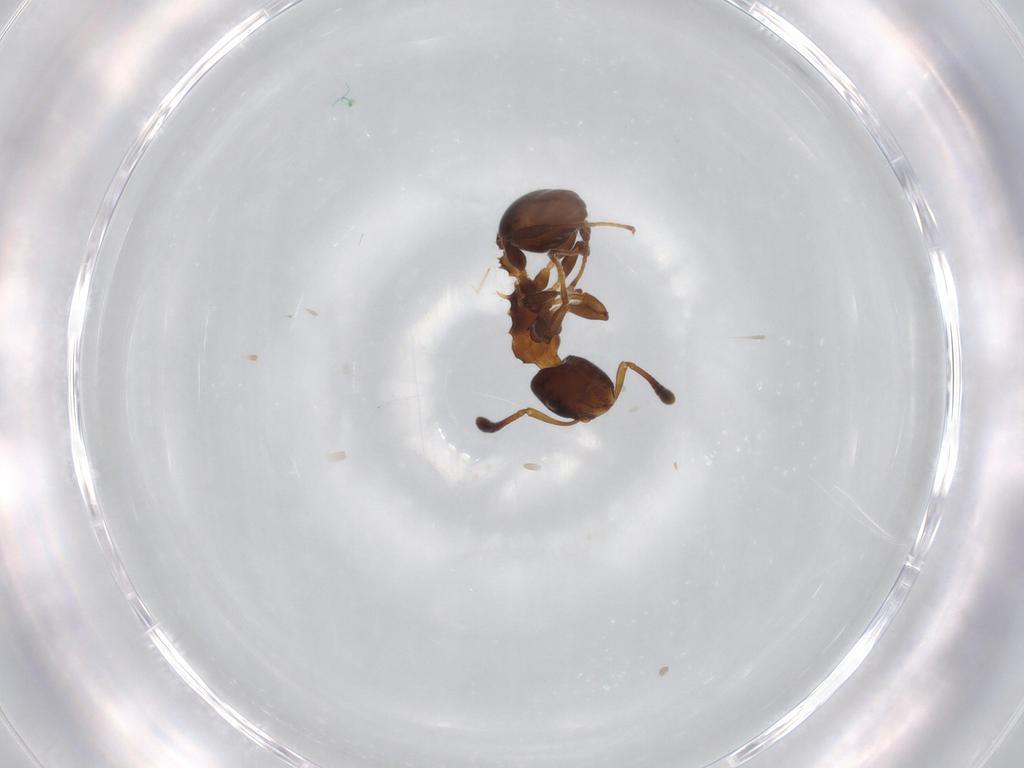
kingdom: Animalia
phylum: Arthropoda
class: Insecta
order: Hymenoptera
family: Formicidae
